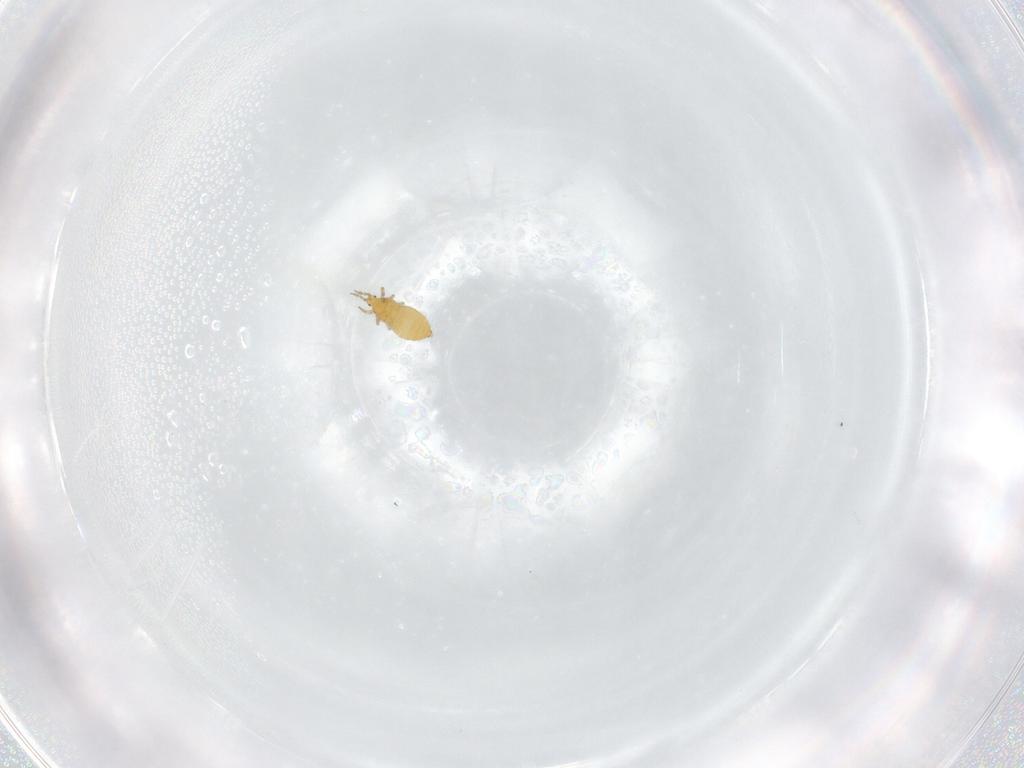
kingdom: Animalia
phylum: Arthropoda
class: Insecta
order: Thysanoptera
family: Thripidae
